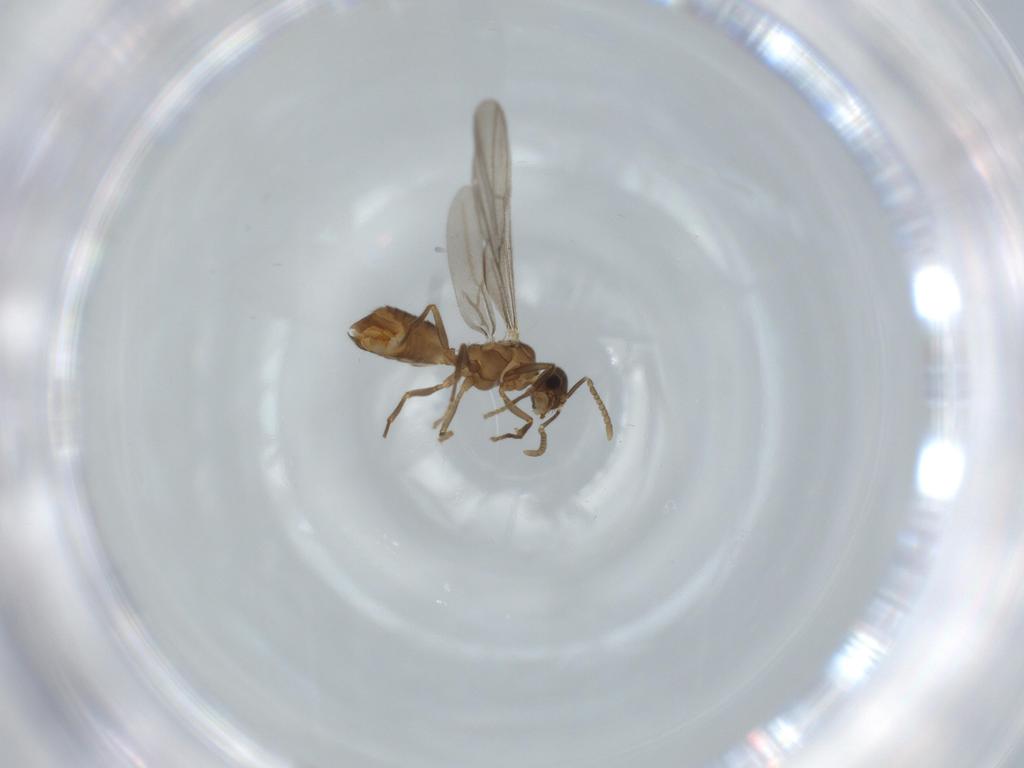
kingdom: Animalia
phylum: Arthropoda
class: Insecta
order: Hymenoptera
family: Formicidae
